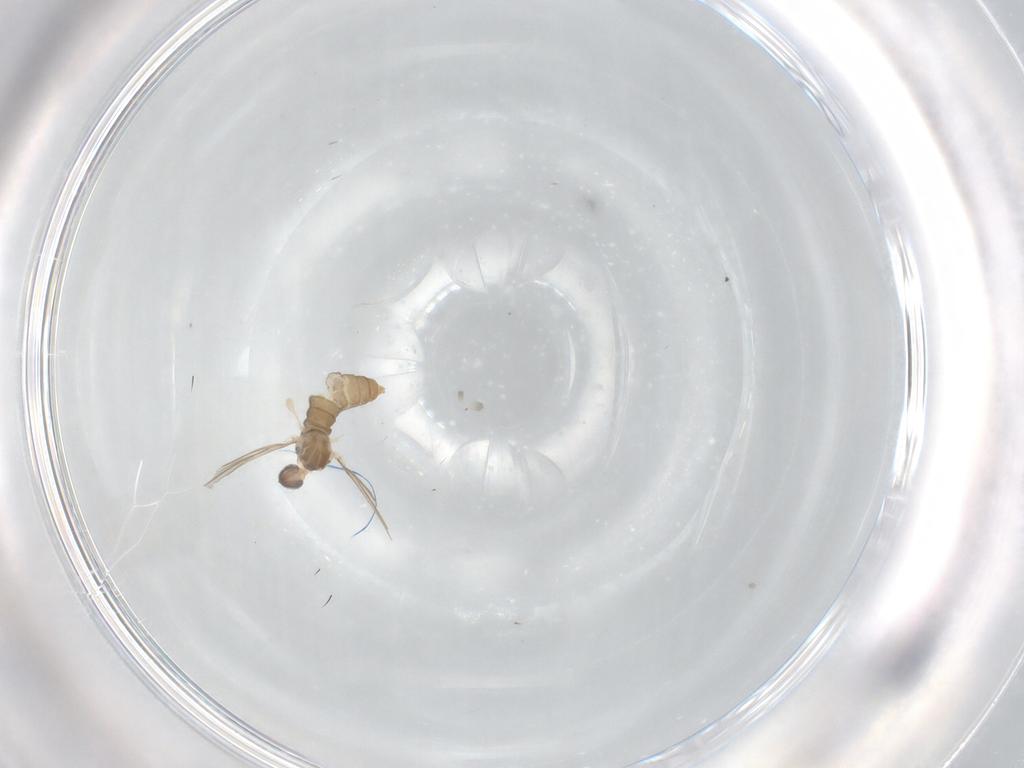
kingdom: Animalia
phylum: Arthropoda
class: Insecta
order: Diptera
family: Cecidomyiidae
